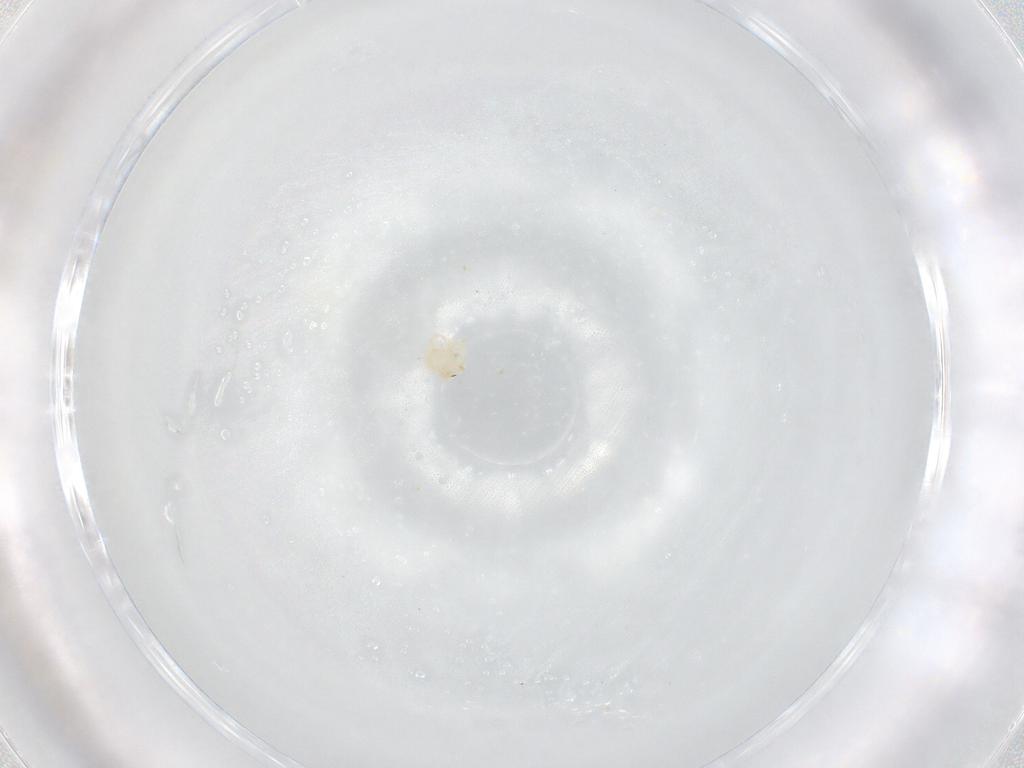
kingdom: Animalia
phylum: Arthropoda
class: Arachnida
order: Trombidiformes
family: Sperchontidae
